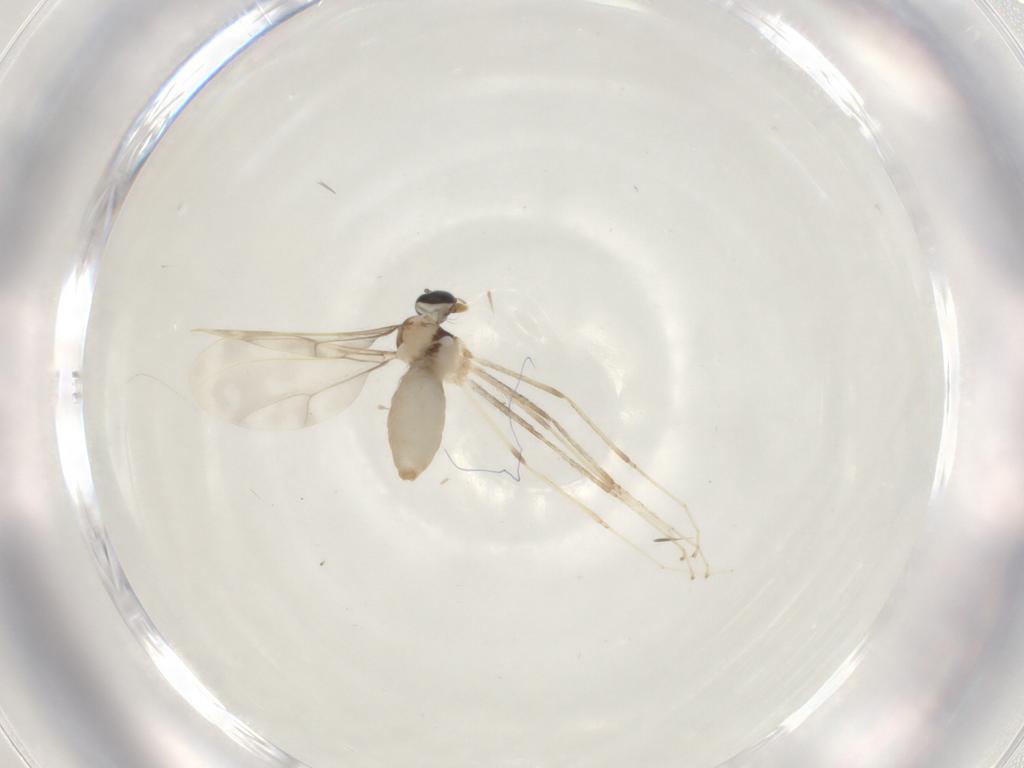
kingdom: Animalia
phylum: Arthropoda
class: Insecta
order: Diptera
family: Cecidomyiidae
